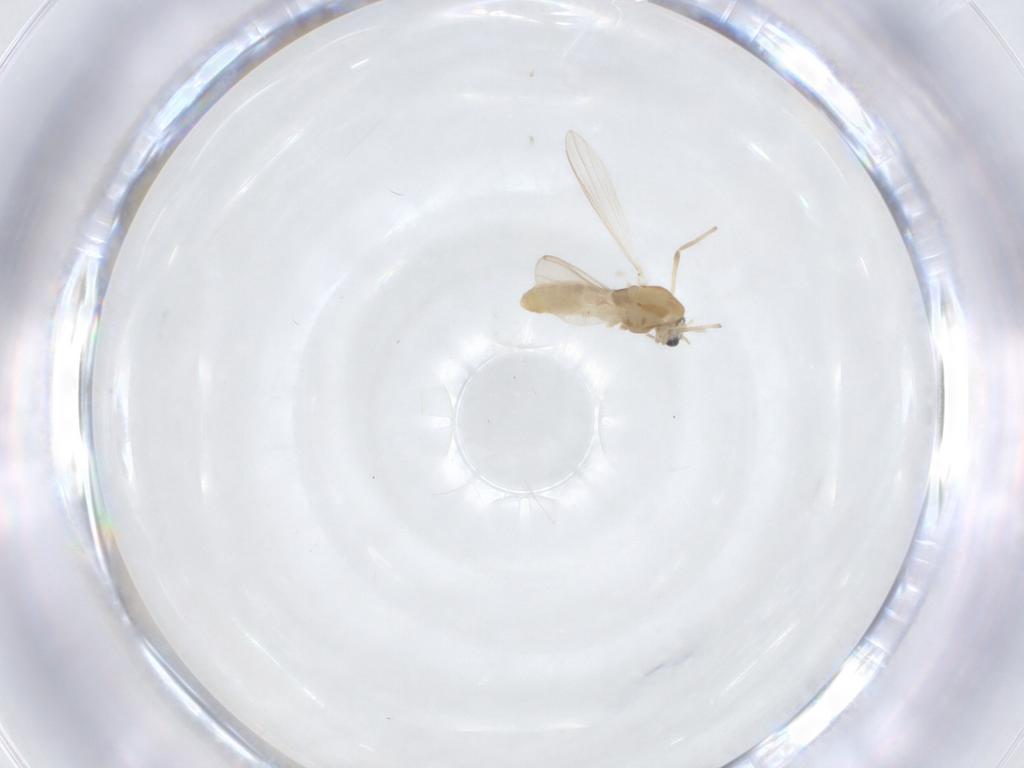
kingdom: Animalia
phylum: Arthropoda
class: Insecta
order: Diptera
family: Chironomidae
